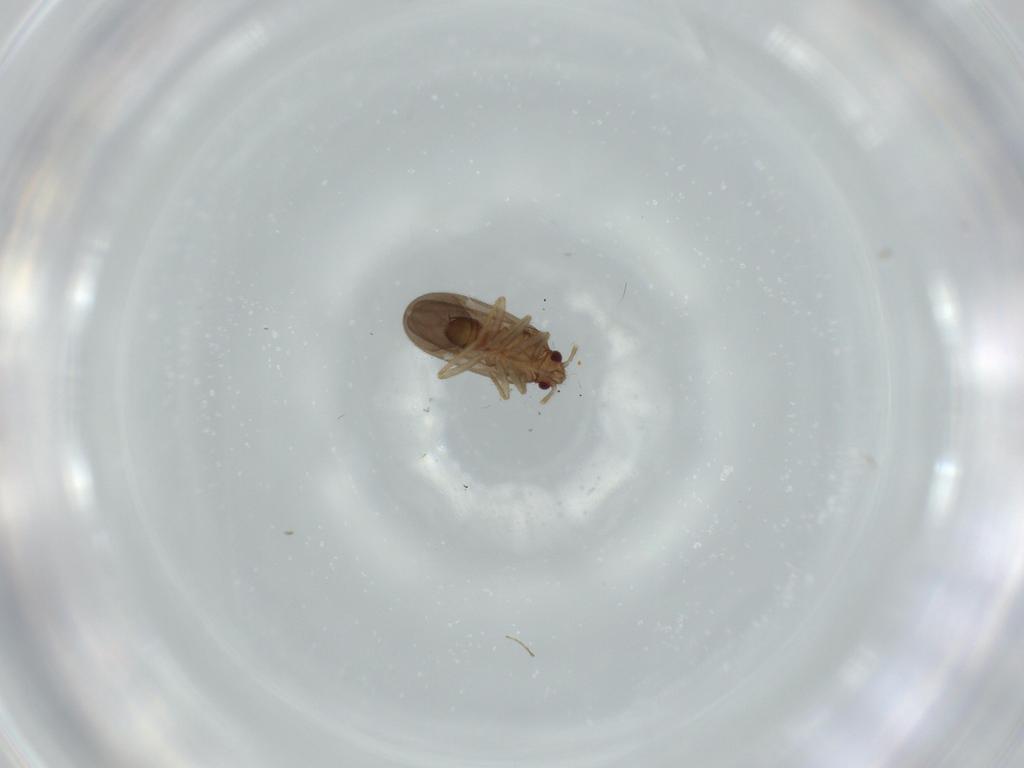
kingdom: Animalia
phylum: Arthropoda
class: Insecta
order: Hemiptera
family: Ceratocombidae
